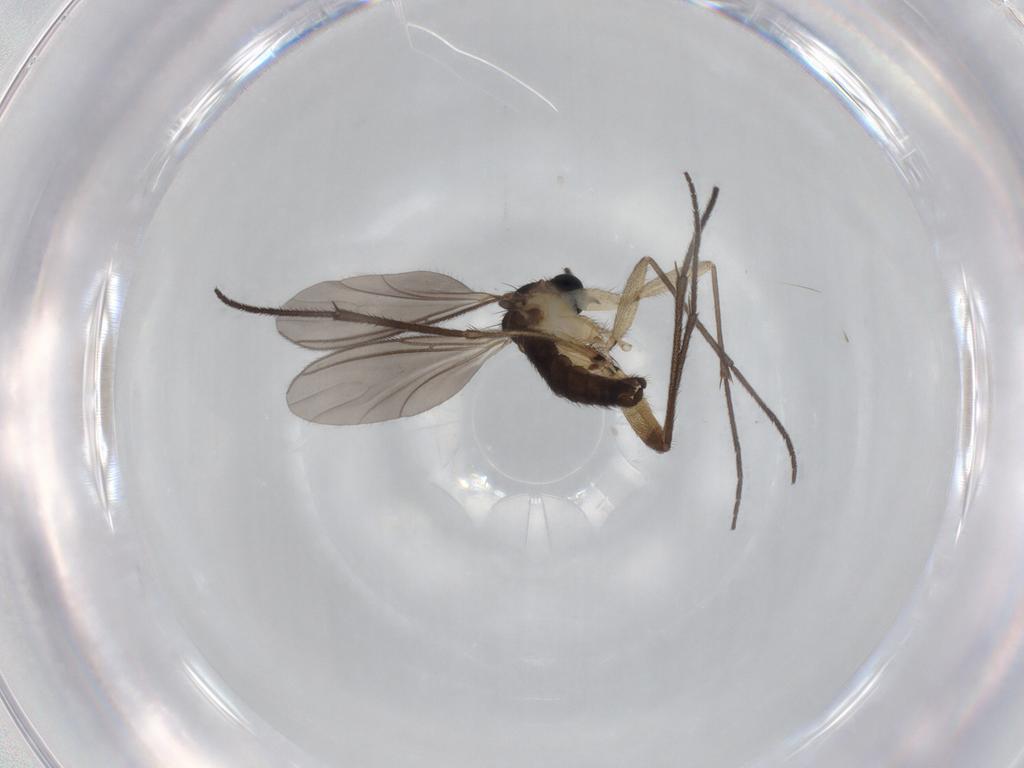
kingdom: Animalia
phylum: Arthropoda
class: Insecta
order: Diptera
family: Sciaridae
